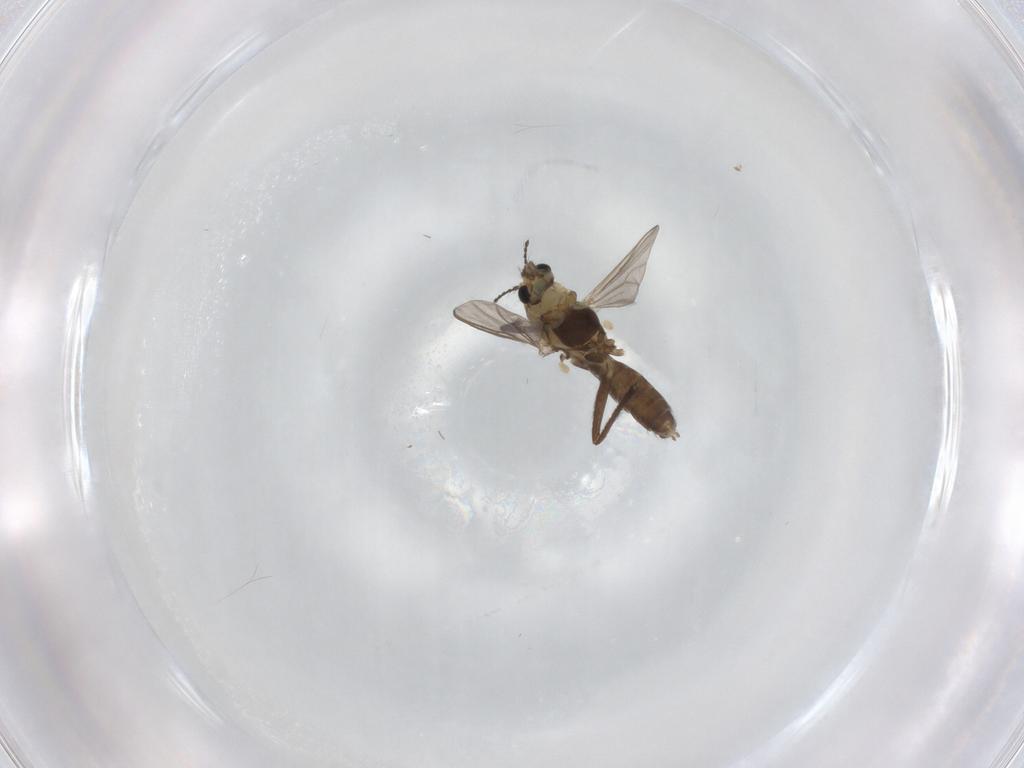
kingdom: Animalia
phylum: Arthropoda
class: Insecta
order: Diptera
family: Chironomidae
